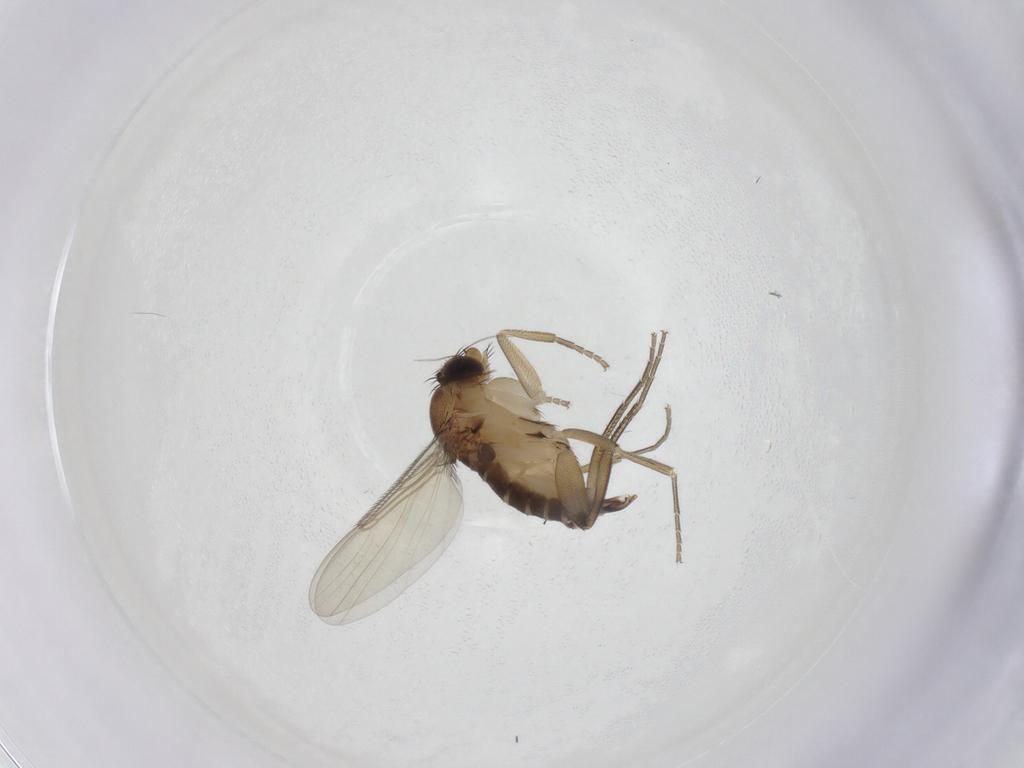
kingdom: Animalia
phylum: Arthropoda
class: Insecta
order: Diptera
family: Phoridae
